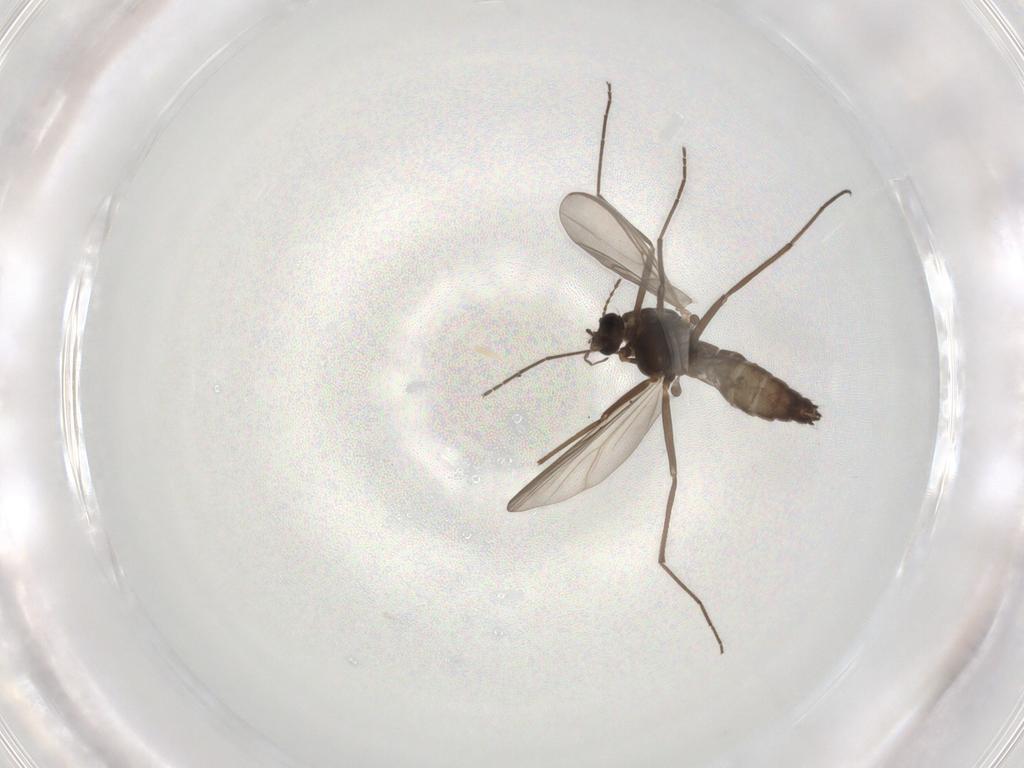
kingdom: Animalia
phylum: Arthropoda
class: Insecta
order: Diptera
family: Chironomidae
